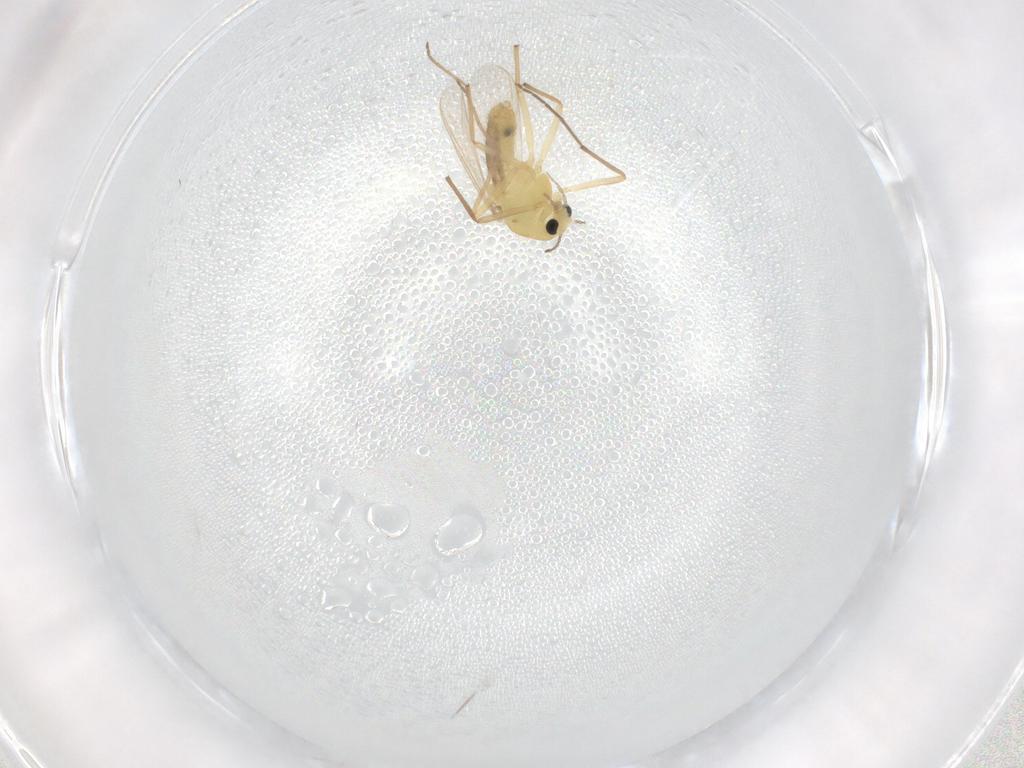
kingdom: Animalia
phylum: Arthropoda
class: Insecta
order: Diptera
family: Chironomidae
